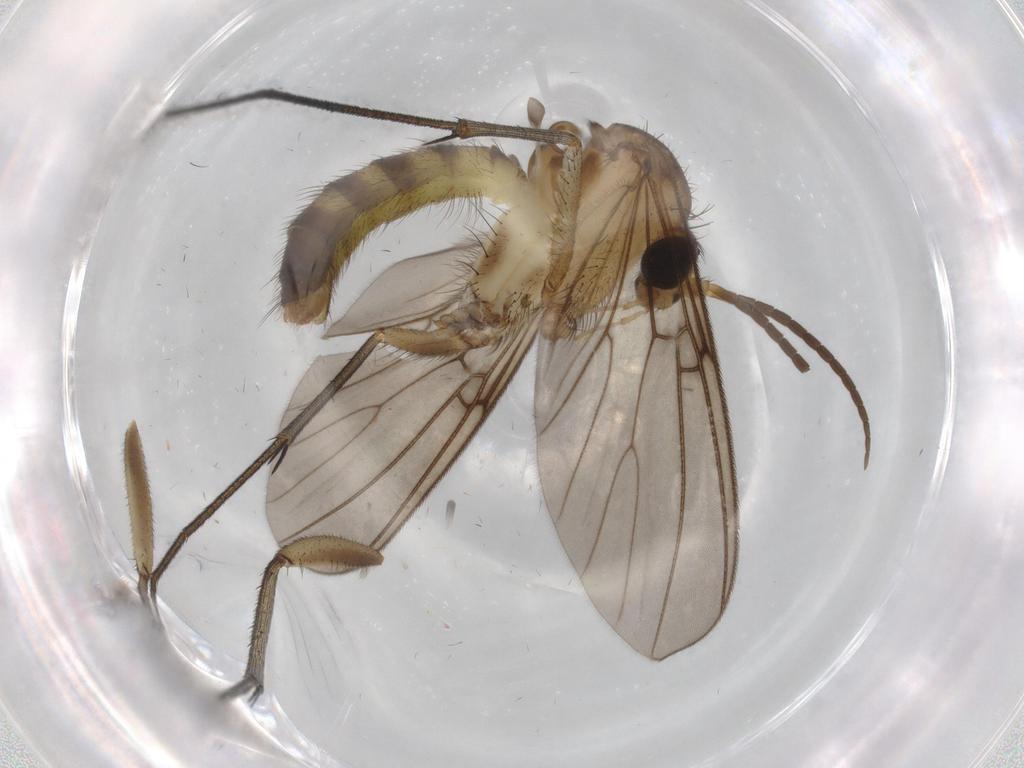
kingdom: Animalia
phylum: Arthropoda
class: Insecta
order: Diptera
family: Mycetophilidae
